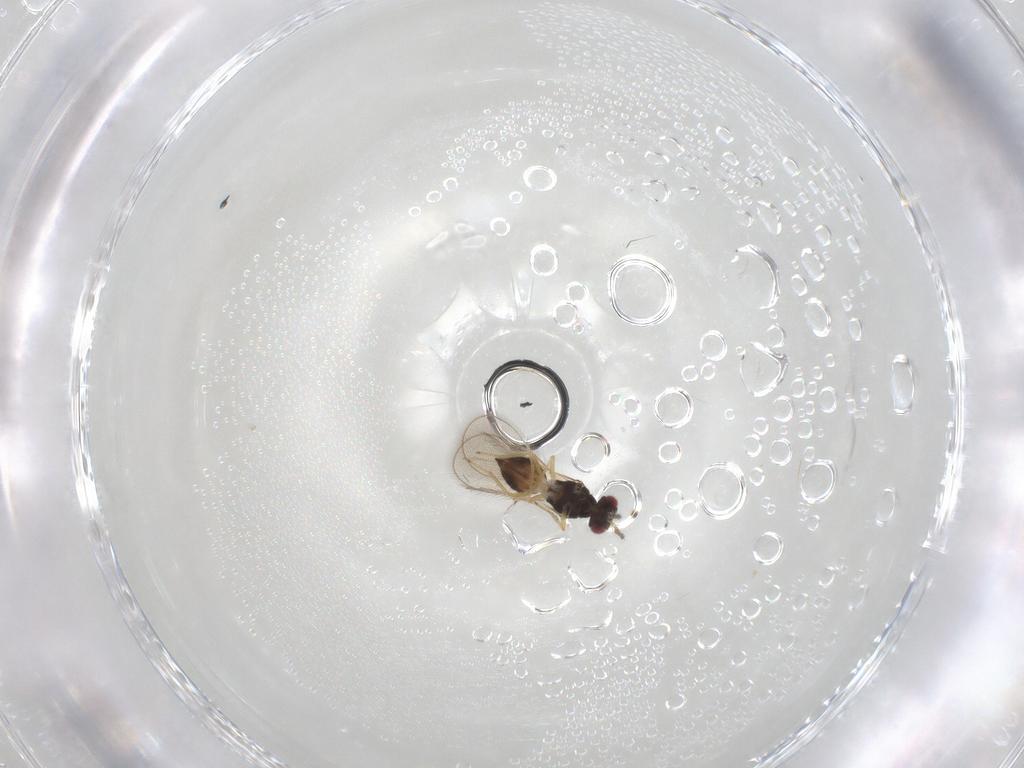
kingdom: Animalia
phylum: Arthropoda
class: Insecta
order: Hymenoptera
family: Eulophidae
